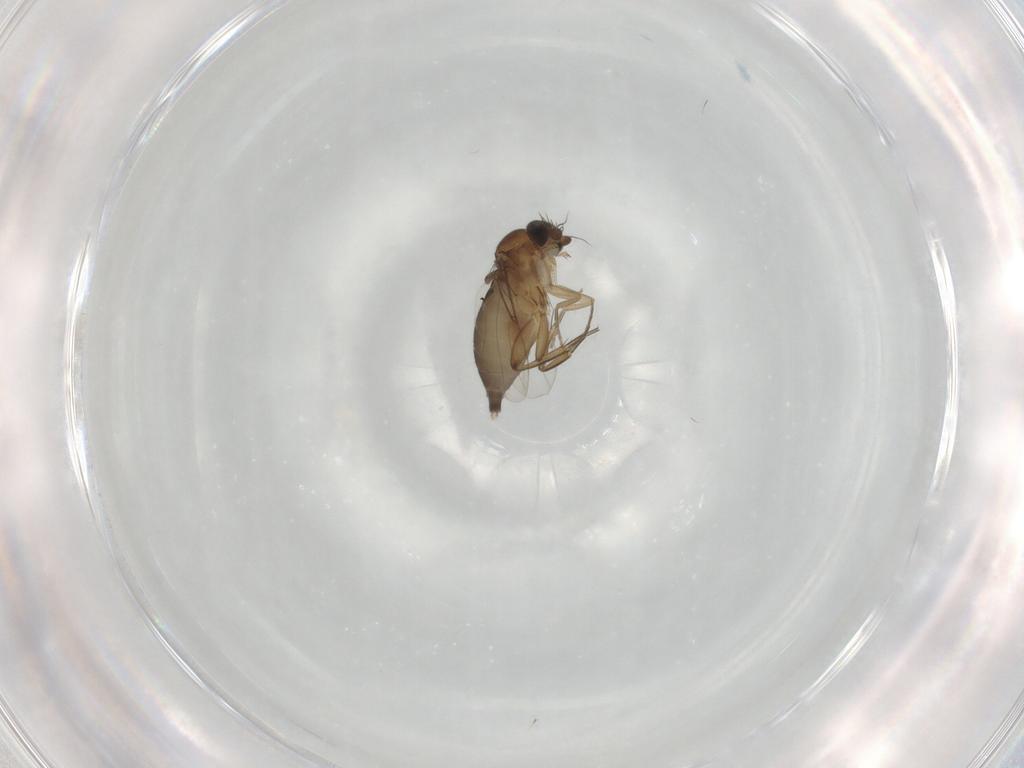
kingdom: Animalia
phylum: Arthropoda
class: Insecta
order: Diptera
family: Phoridae
